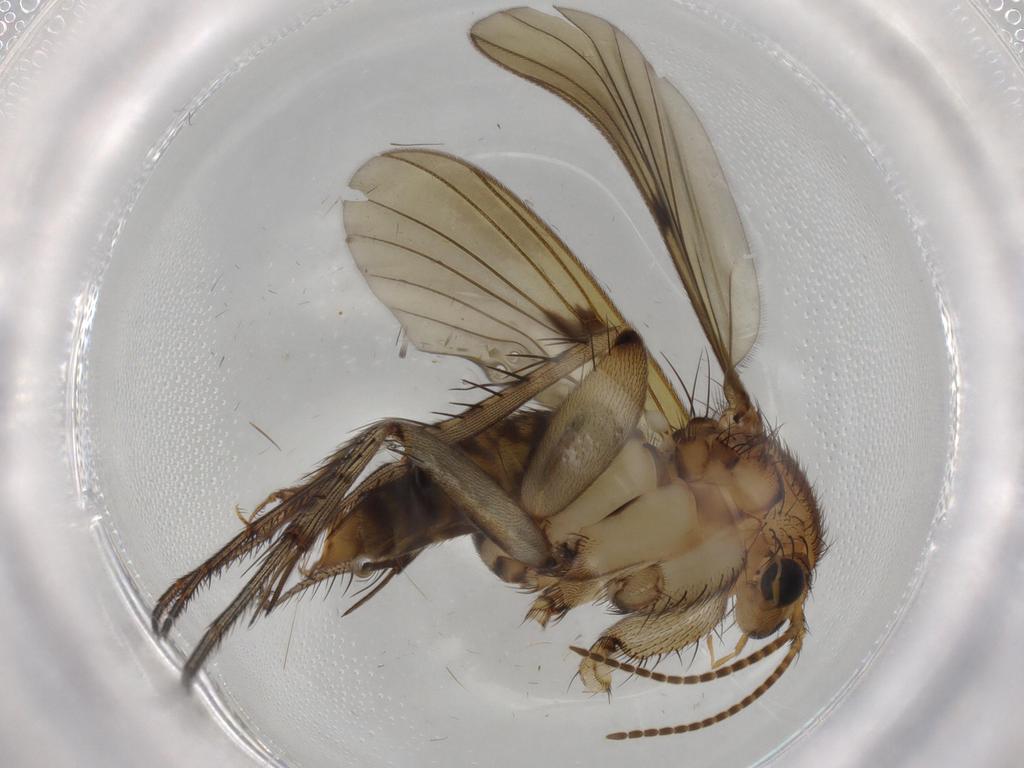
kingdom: Animalia
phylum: Arthropoda
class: Insecta
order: Diptera
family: Sciaridae
